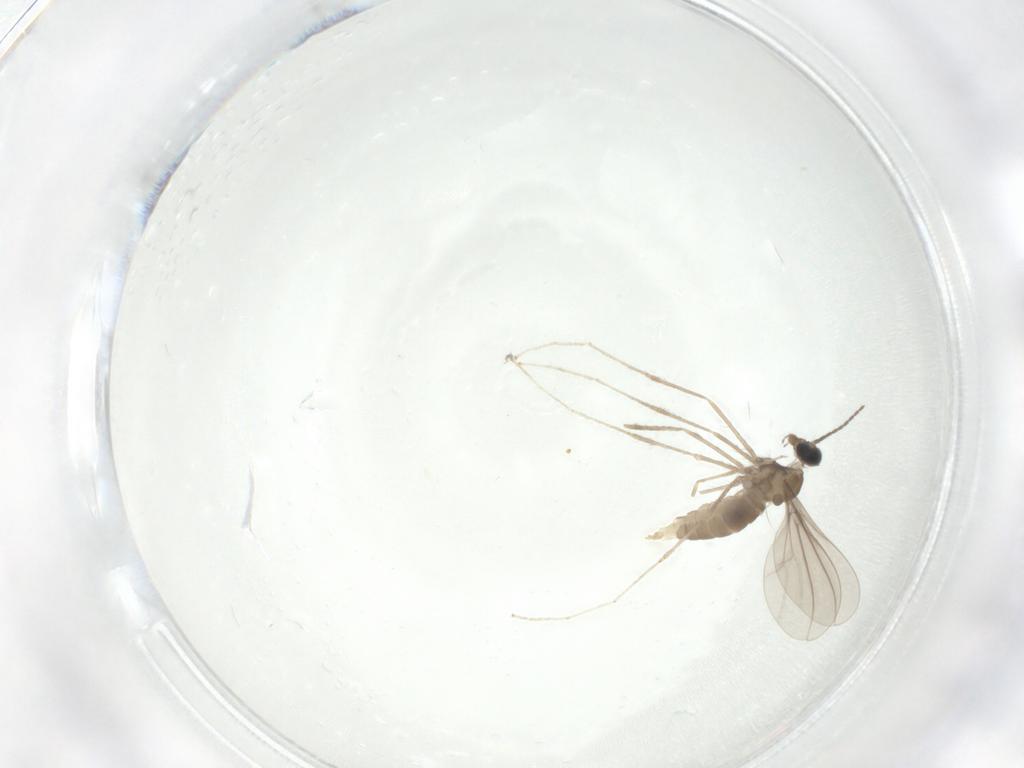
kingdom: Animalia
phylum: Arthropoda
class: Insecta
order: Diptera
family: Cecidomyiidae
